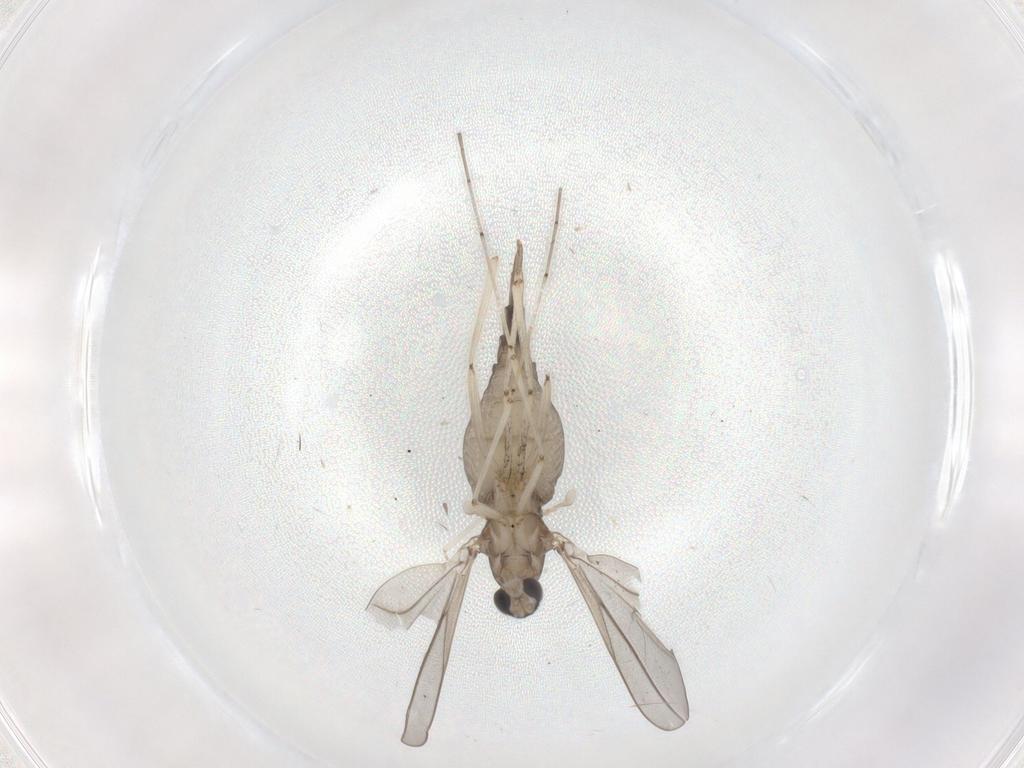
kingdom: Animalia
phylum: Arthropoda
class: Insecta
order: Diptera
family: Cecidomyiidae
